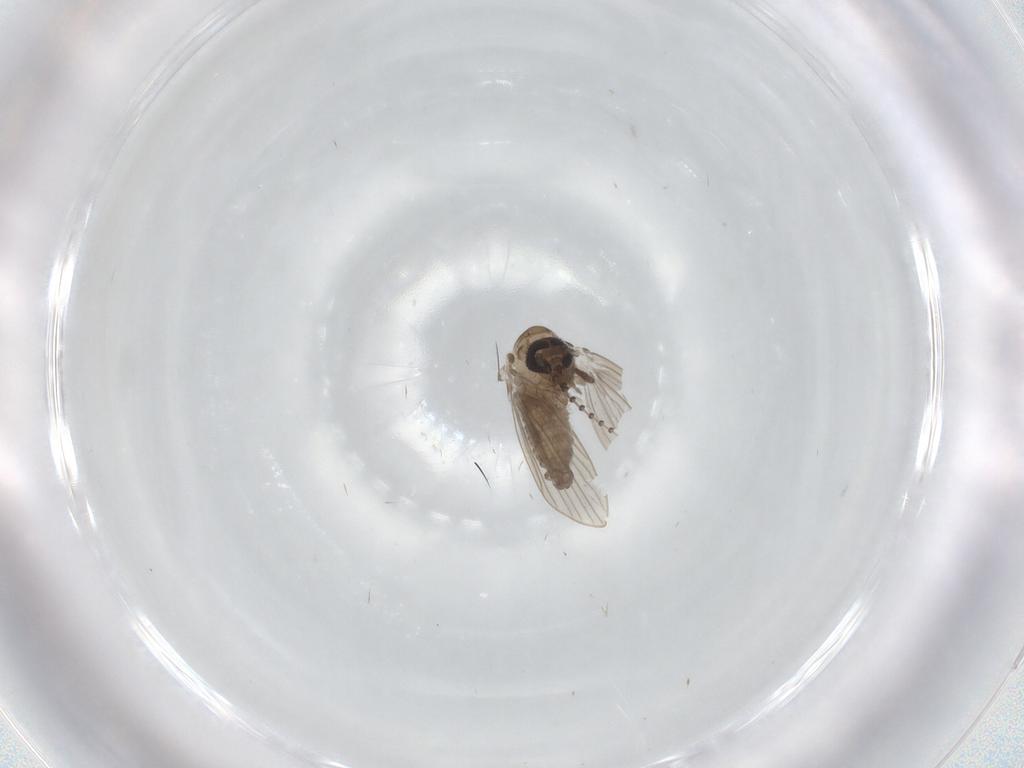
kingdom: Animalia
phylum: Arthropoda
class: Insecta
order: Diptera
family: Psychodidae
